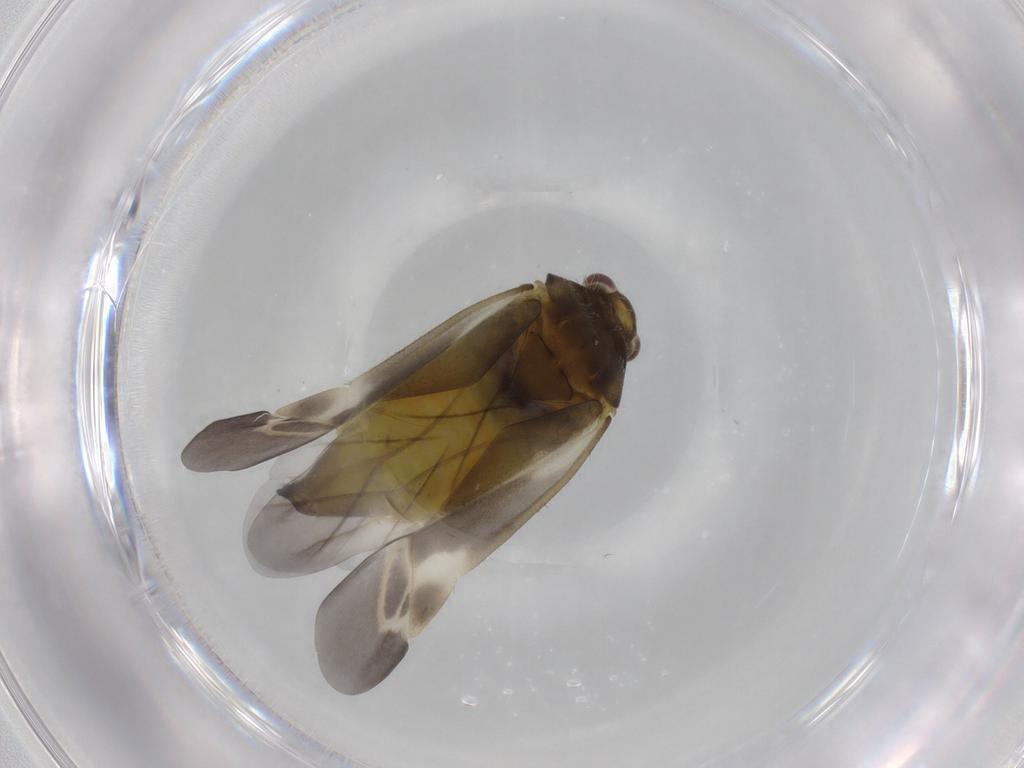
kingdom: Animalia
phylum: Arthropoda
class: Insecta
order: Hemiptera
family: Miridae
